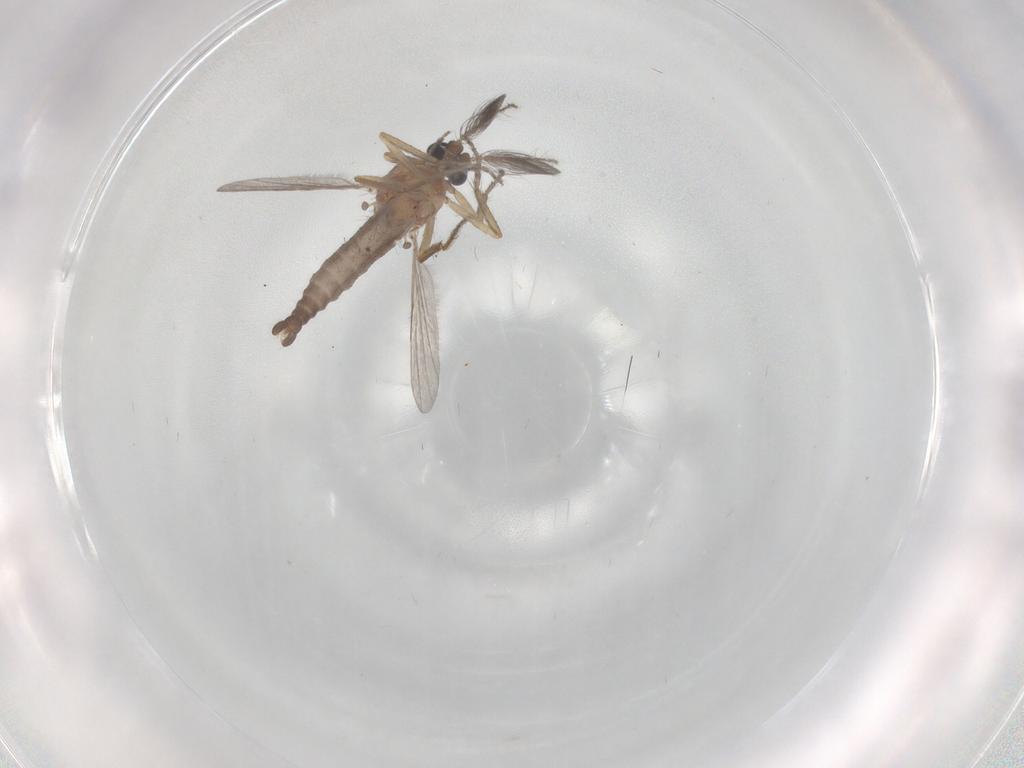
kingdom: Animalia
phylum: Arthropoda
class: Insecta
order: Diptera
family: Ceratopogonidae
